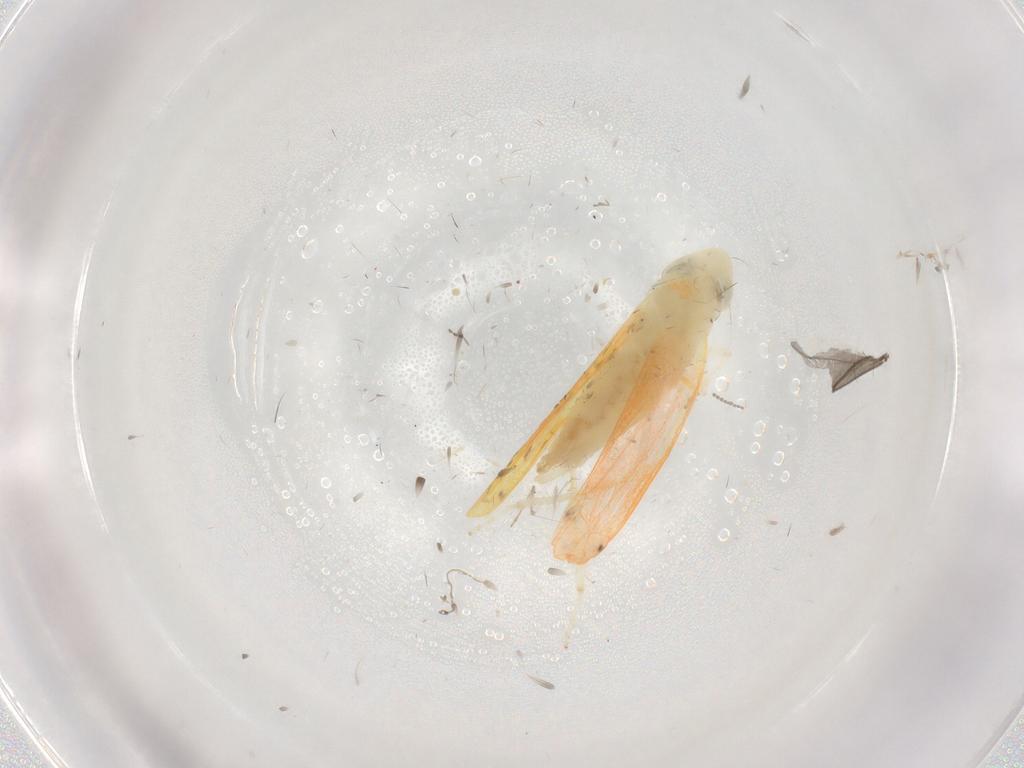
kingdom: Animalia
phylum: Arthropoda
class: Insecta
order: Hemiptera
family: Cicadellidae
